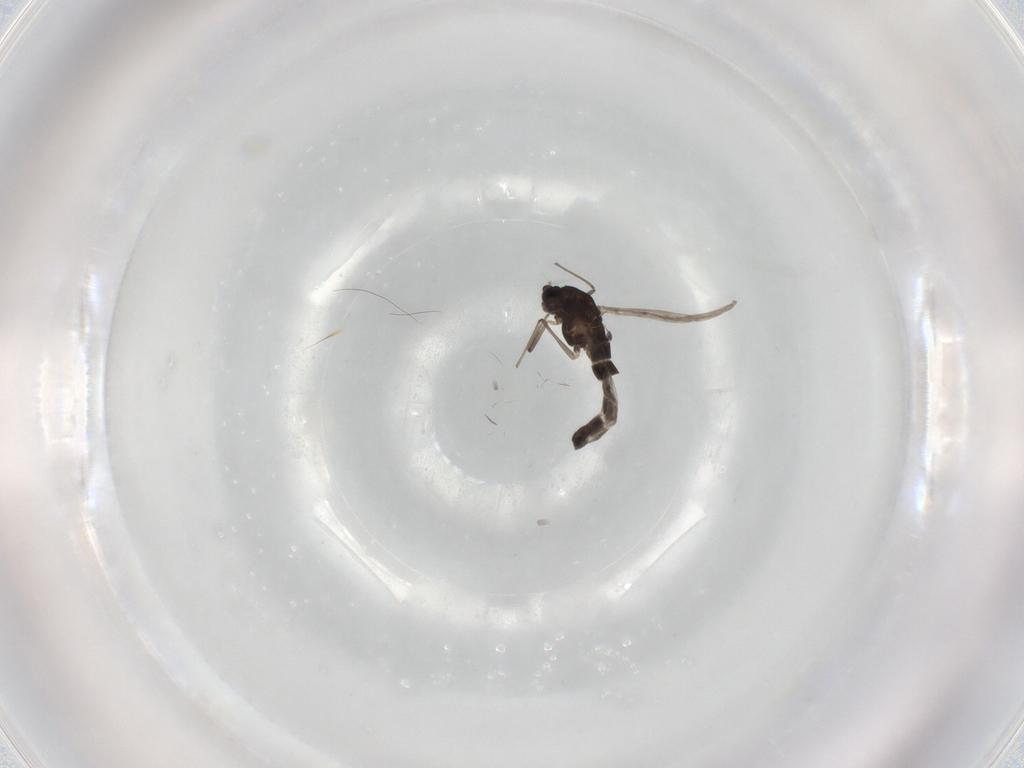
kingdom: Animalia
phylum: Arthropoda
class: Insecta
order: Diptera
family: Chironomidae
